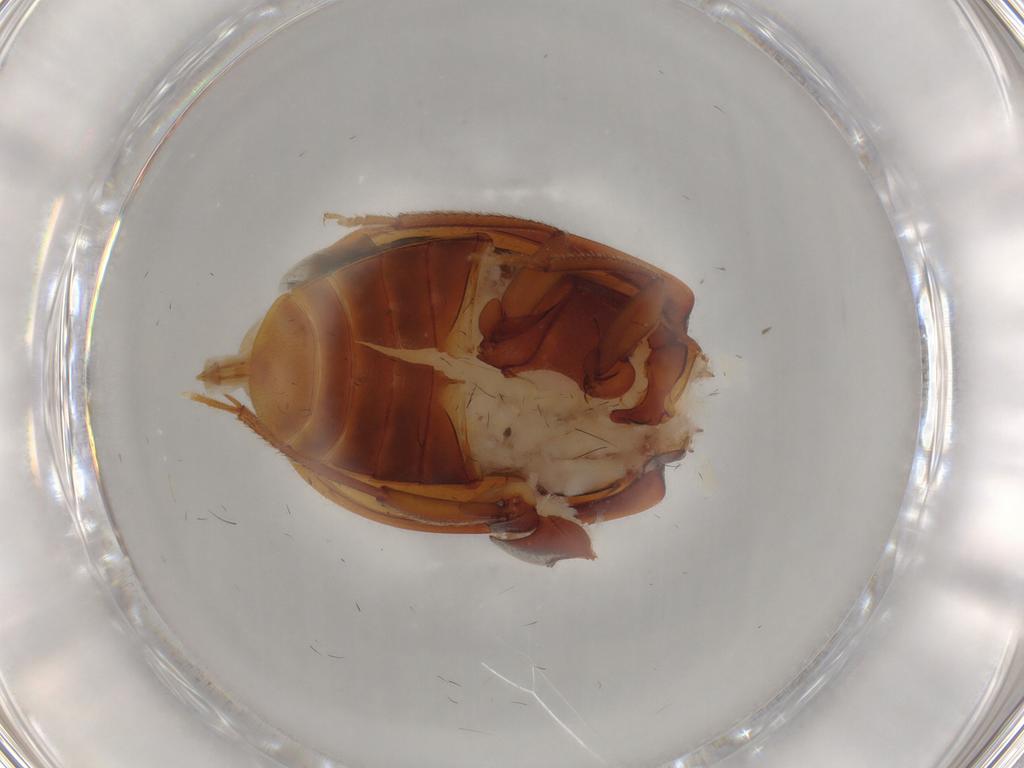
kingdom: Animalia
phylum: Arthropoda
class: Insecta
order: Coleoptera
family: Ptilodactylidae
